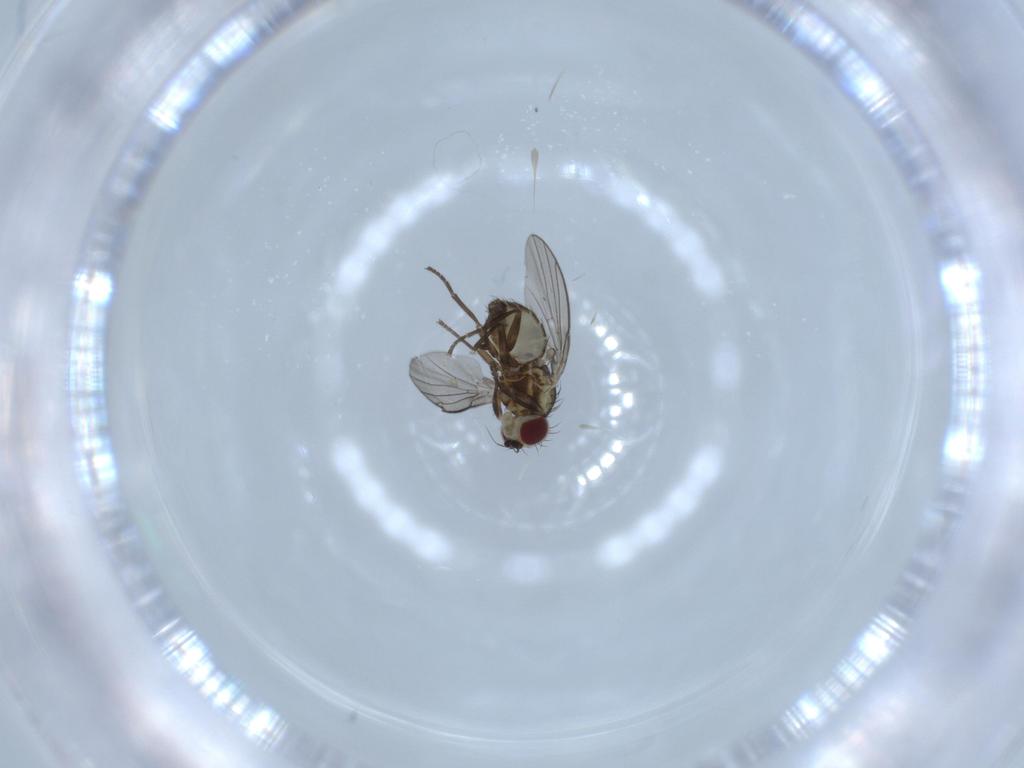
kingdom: Animalia
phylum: Arthropoda
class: Insecta
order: Diptera
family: Agromyzidae
